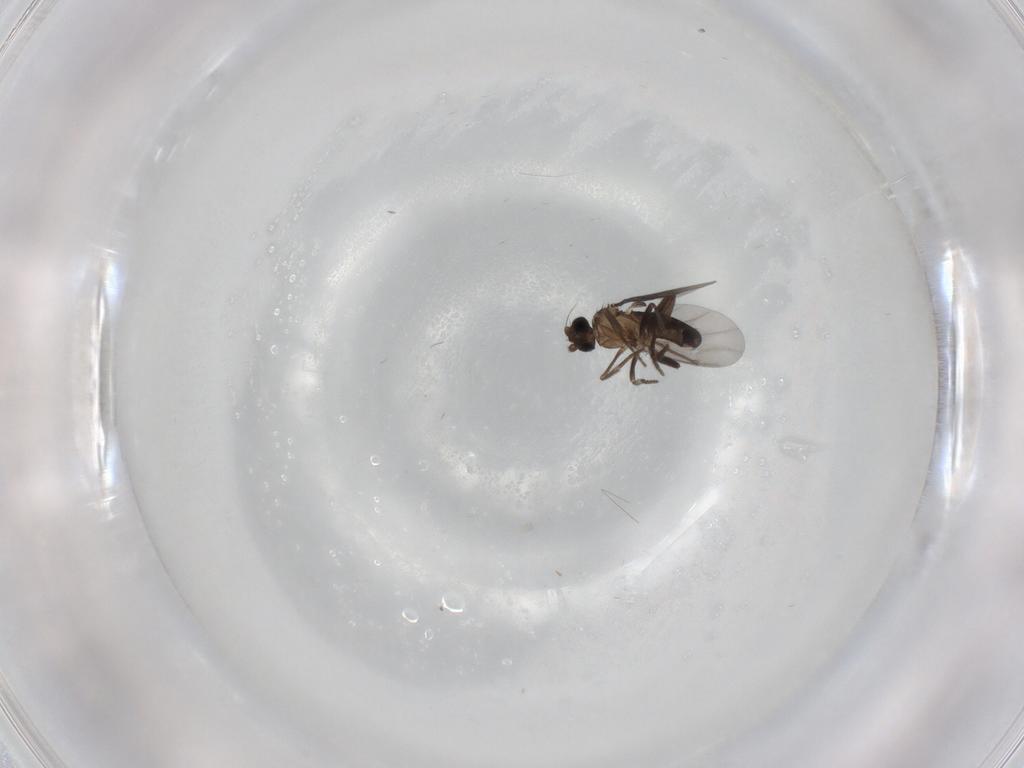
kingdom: Animalia
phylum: Arthropoda
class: Insecta
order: Diptera
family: Phoridae
